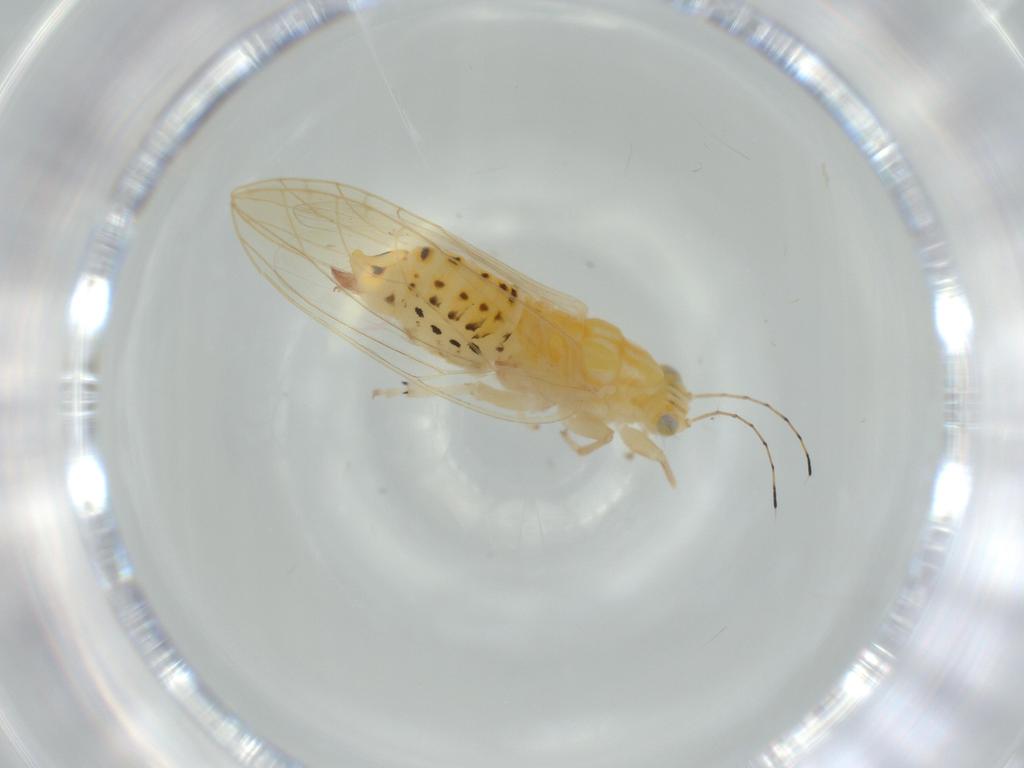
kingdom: Animalia
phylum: Arthropoda
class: Insecta
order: Hemiptera
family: Triozidae
